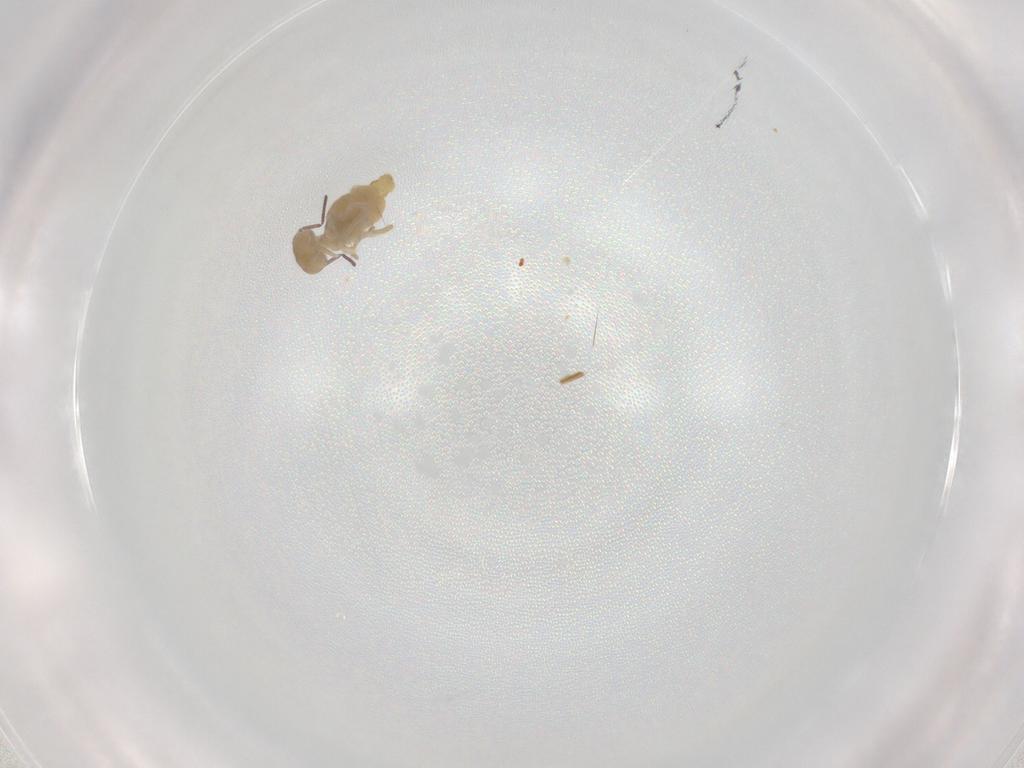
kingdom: Animalia
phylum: Arthropoda
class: Collembola
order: Symphypleona
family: Bourletiellidae
